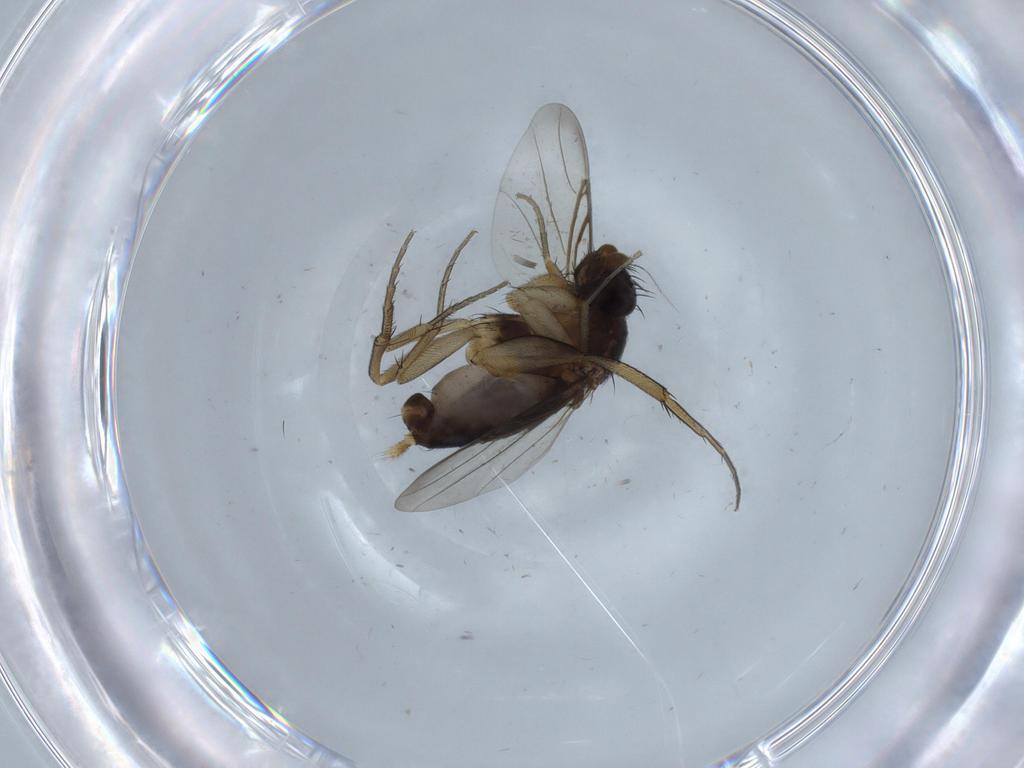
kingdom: Animalia
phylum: Arthropoda
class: Insecta
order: Diptera
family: Phoridae
